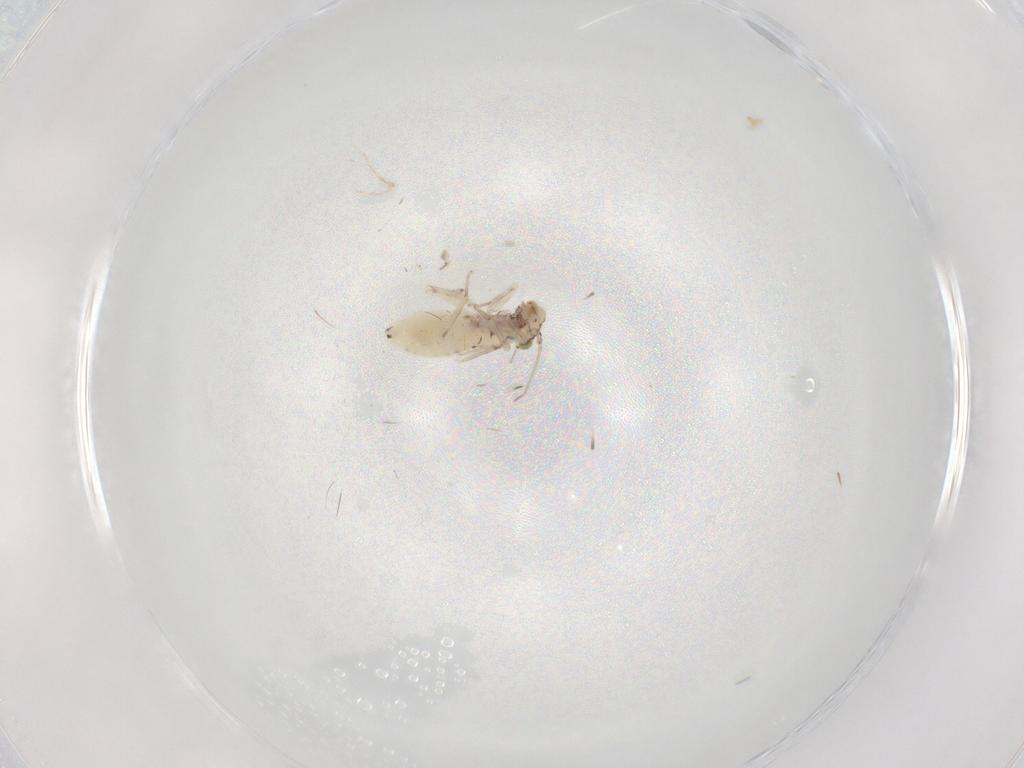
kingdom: Animalia
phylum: Arthropoda
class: Insecta
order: Psocodea
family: Lepidopsocidae
